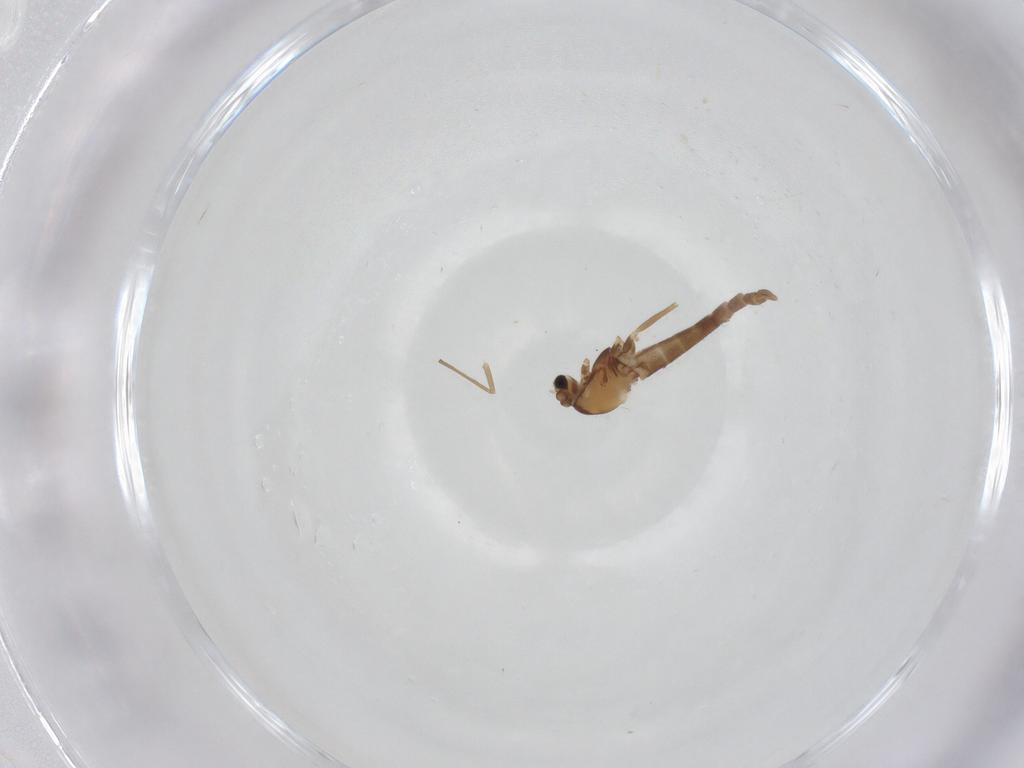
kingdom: Animalia
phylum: Arthropoda
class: Insecta
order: Diptera
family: Chironomidae
